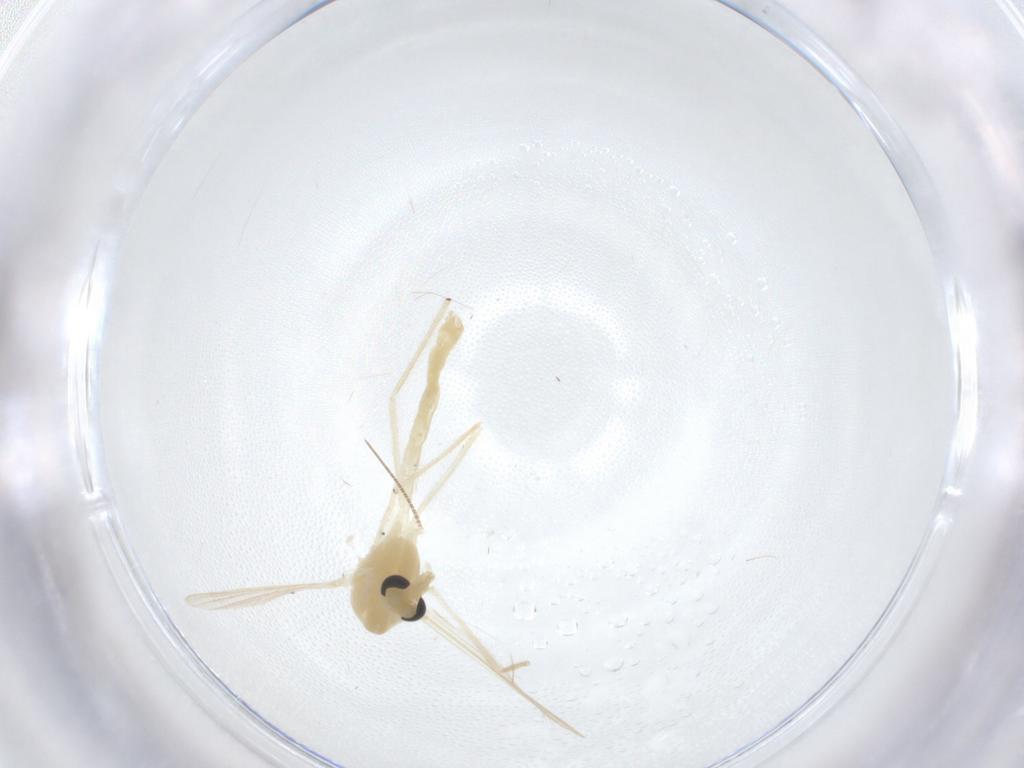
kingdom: Animalia
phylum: Arthropoda
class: Insecta
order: Diptera
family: Chironomidae
